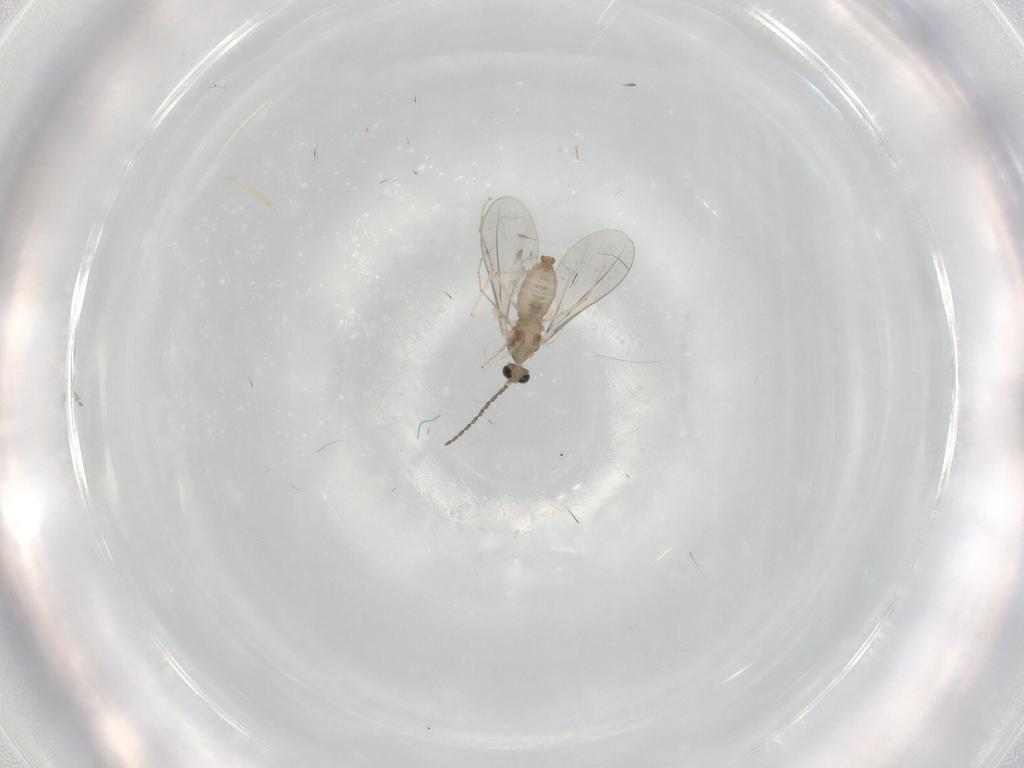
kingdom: Animalia
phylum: Arthropoda
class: Insecta
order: Diptera
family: Cecidomyiidae
